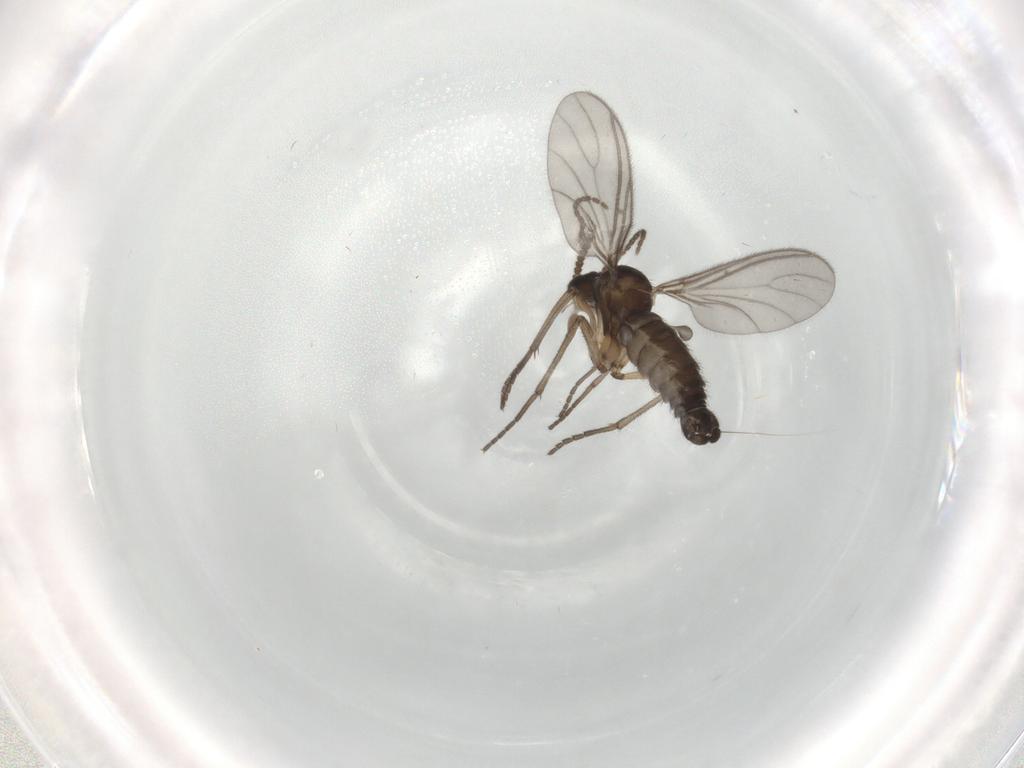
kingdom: Animalia
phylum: Arthropoda
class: Insecta
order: Diptera
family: Sciaridae
